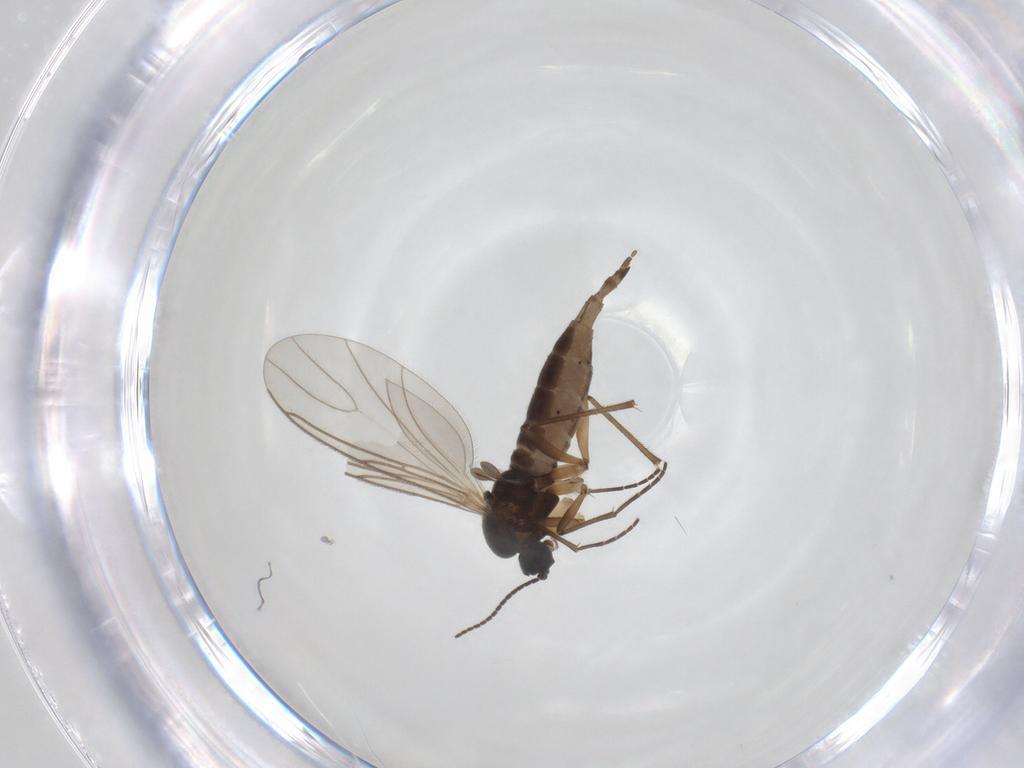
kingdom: Animalia
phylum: Arthropoda
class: Insecta
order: Diptera
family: Sciaridae
